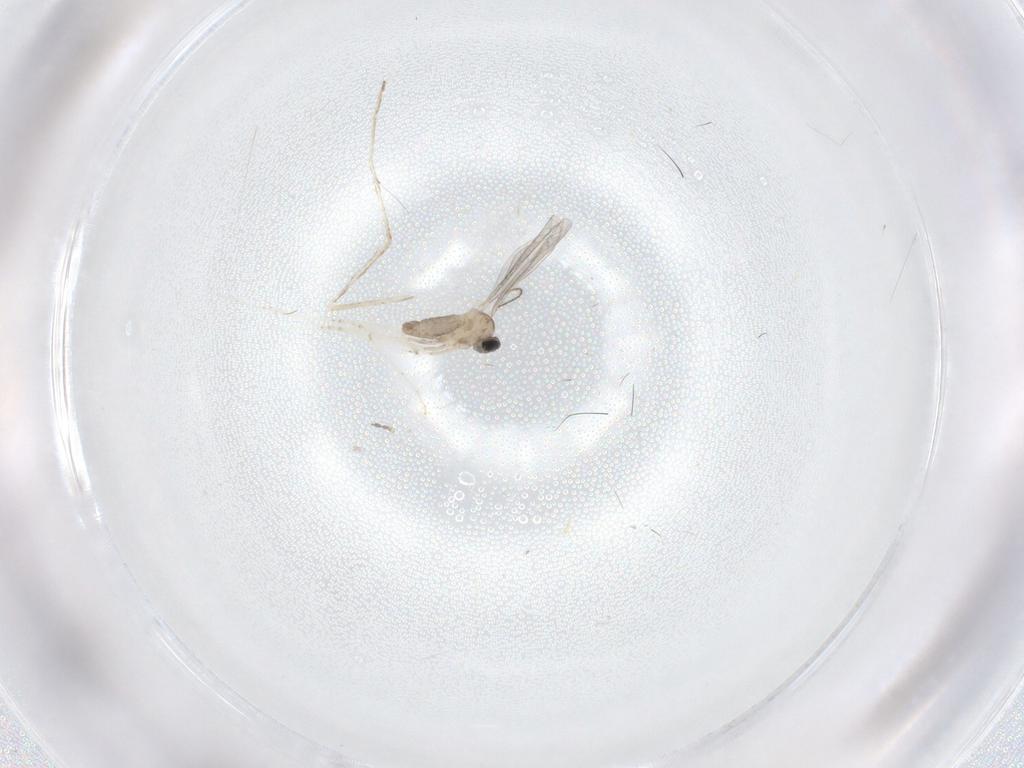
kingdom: Animalia
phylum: Arthropoda
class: Insecta
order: Diptera
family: Cecidomyiidae
